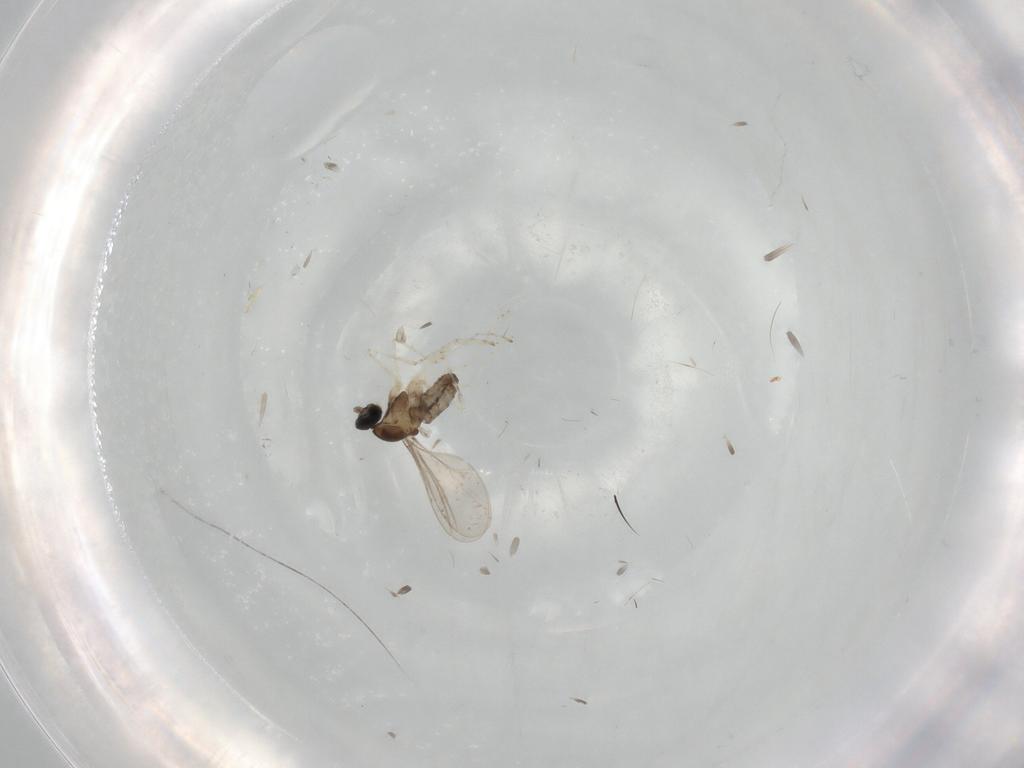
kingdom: Animalia
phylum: Arthropoda
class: Insecta
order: Diptera
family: Cecidomyiidae
